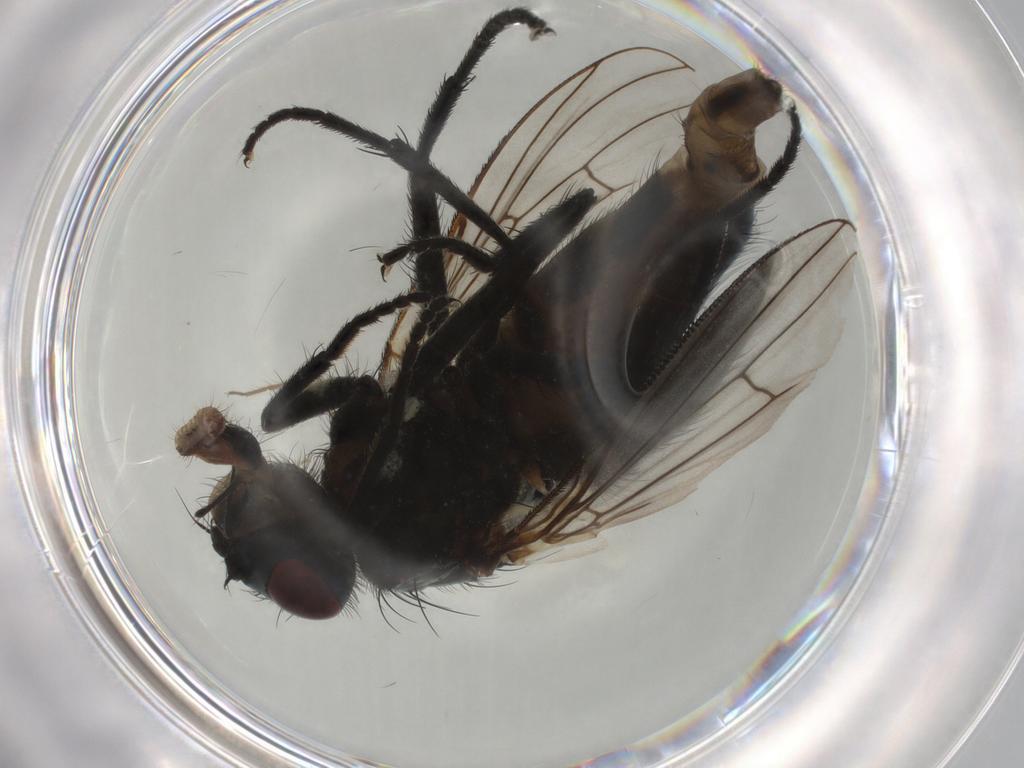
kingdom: Animalia
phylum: Arthropoda
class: Insecta
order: Diptera
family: Muscidae
